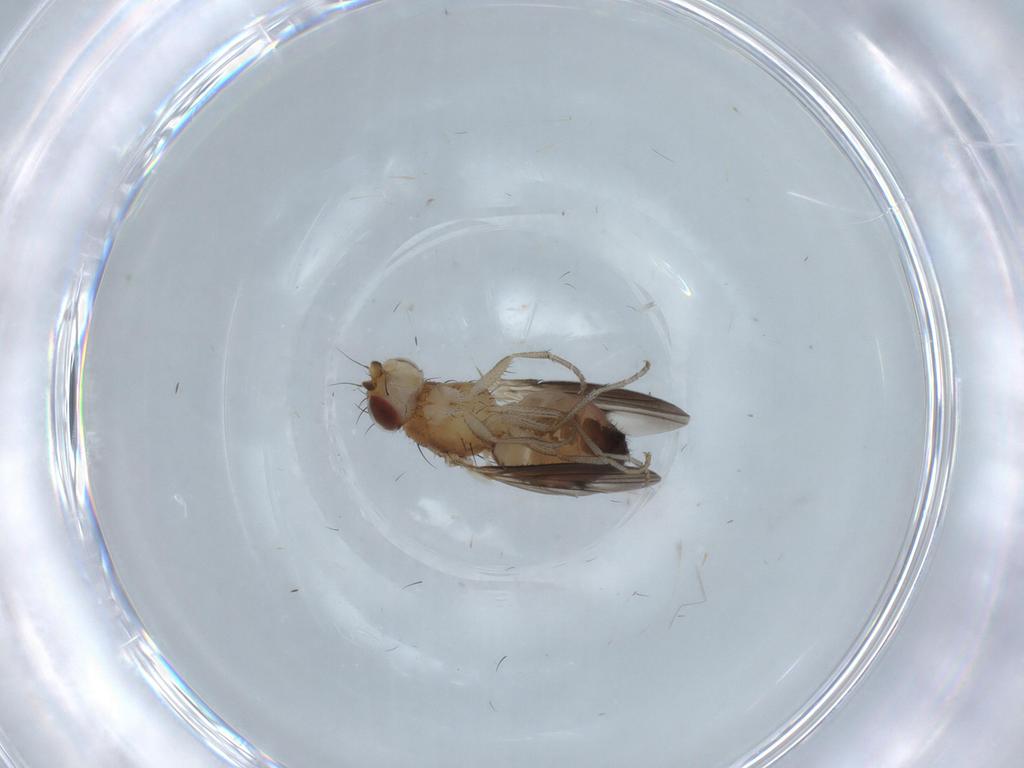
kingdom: Animalia
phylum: Arthropoda
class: Insecta
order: Diptera
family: Heleomyzidae
